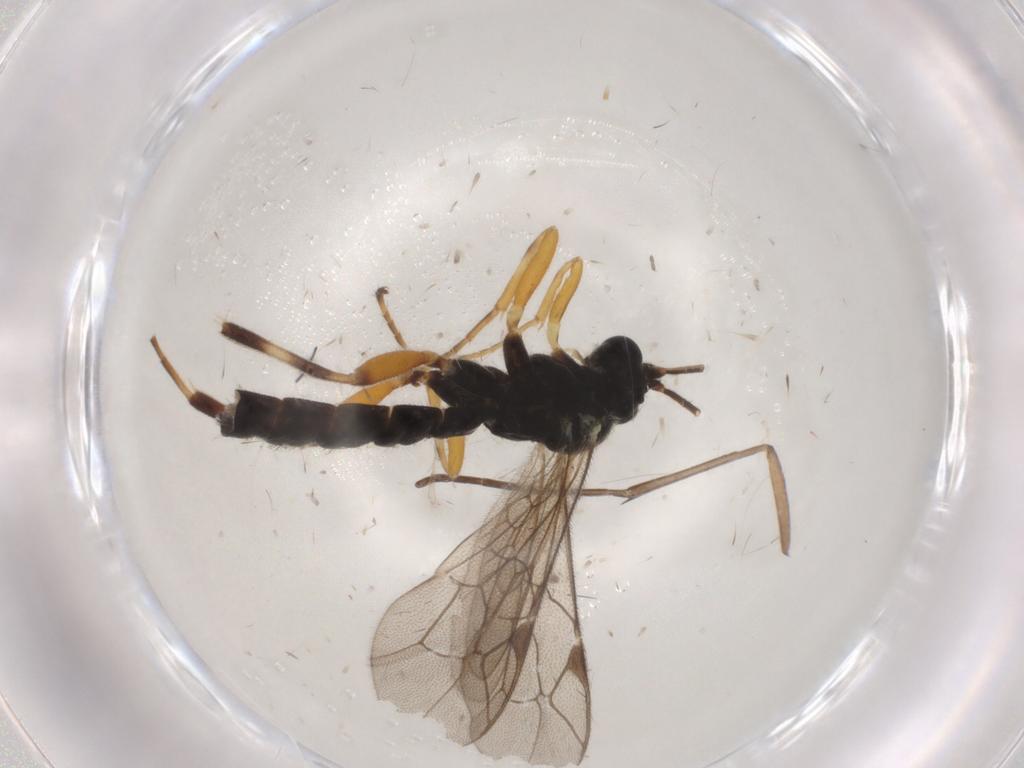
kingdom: Animalia
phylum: Arthropoda
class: Insecta
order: Hymenoptera
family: Ichneumonidae
